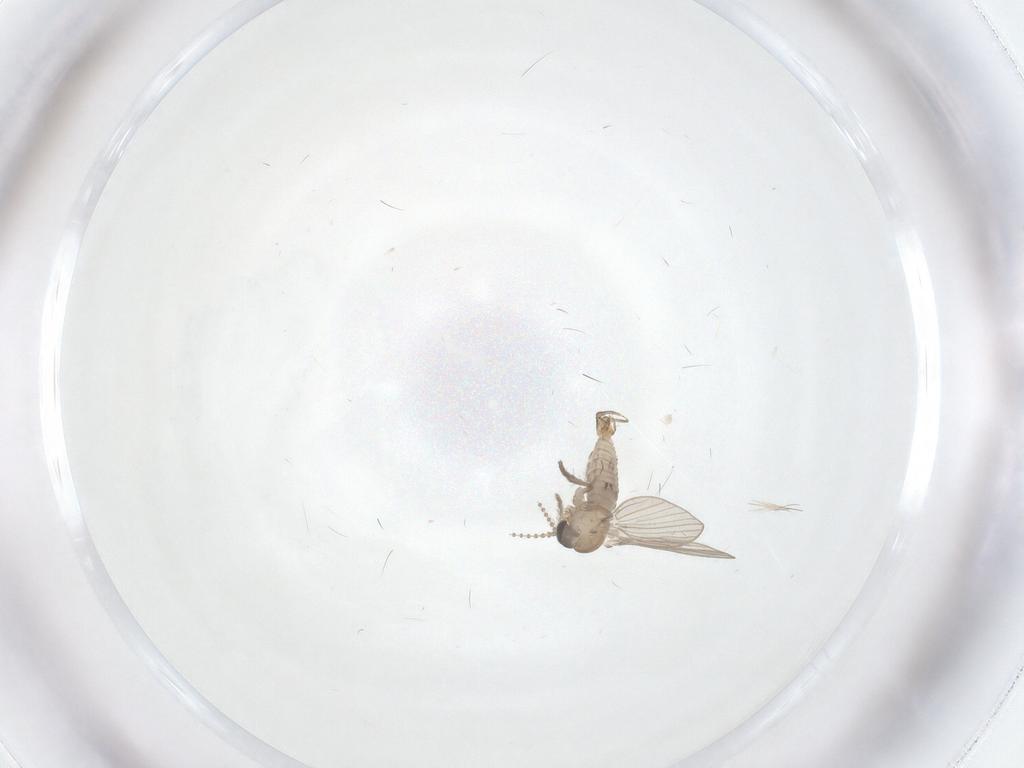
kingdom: Animalia
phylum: Arthropoda
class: Insecta
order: Diptera
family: Psychodidae
